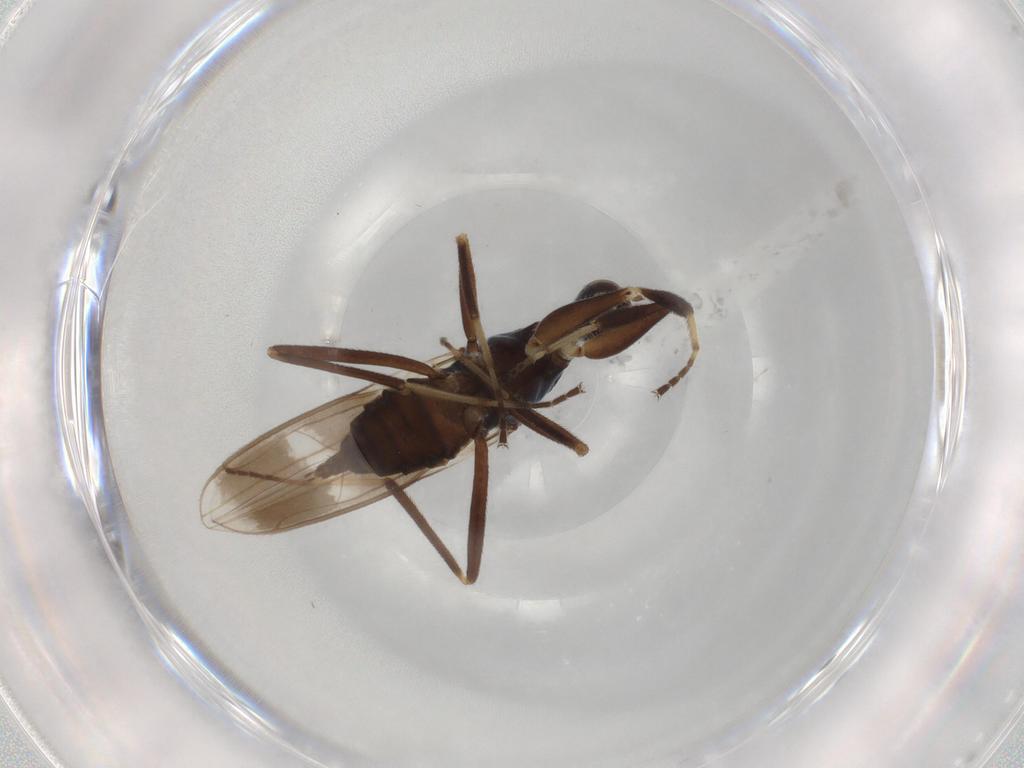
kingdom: Animalia
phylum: Arthropoda
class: Insecta
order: Diptera
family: Hybotidae
